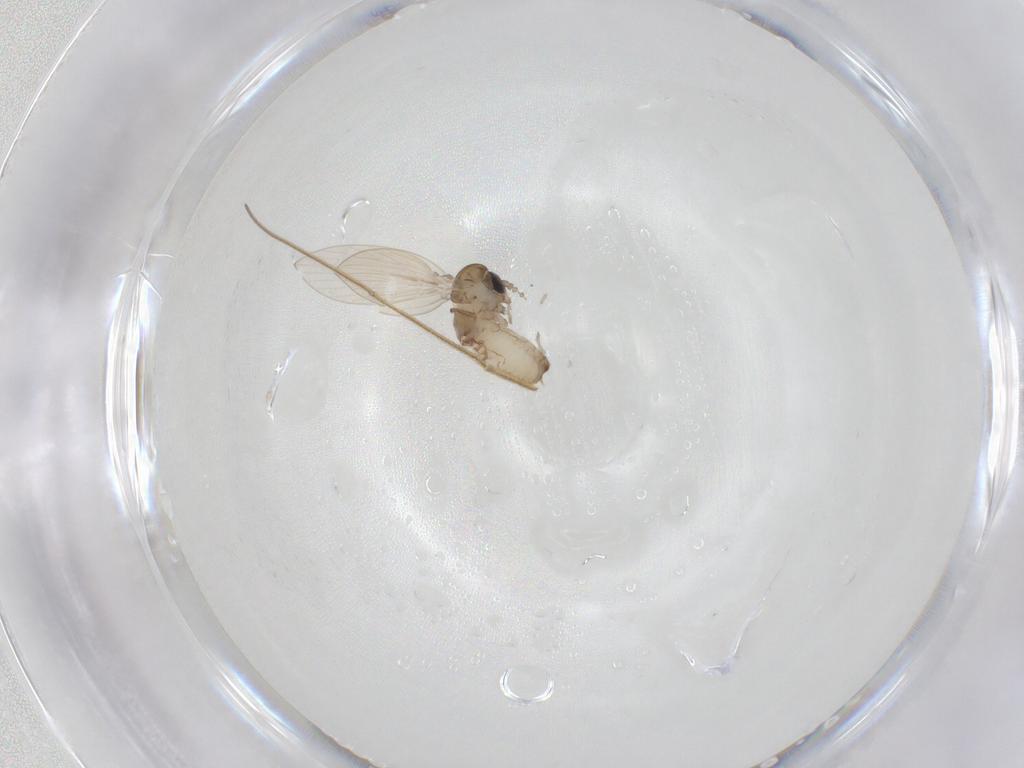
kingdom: Animalia
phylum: Arthropoda
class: Insecta
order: Diptera
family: Psychodidae
